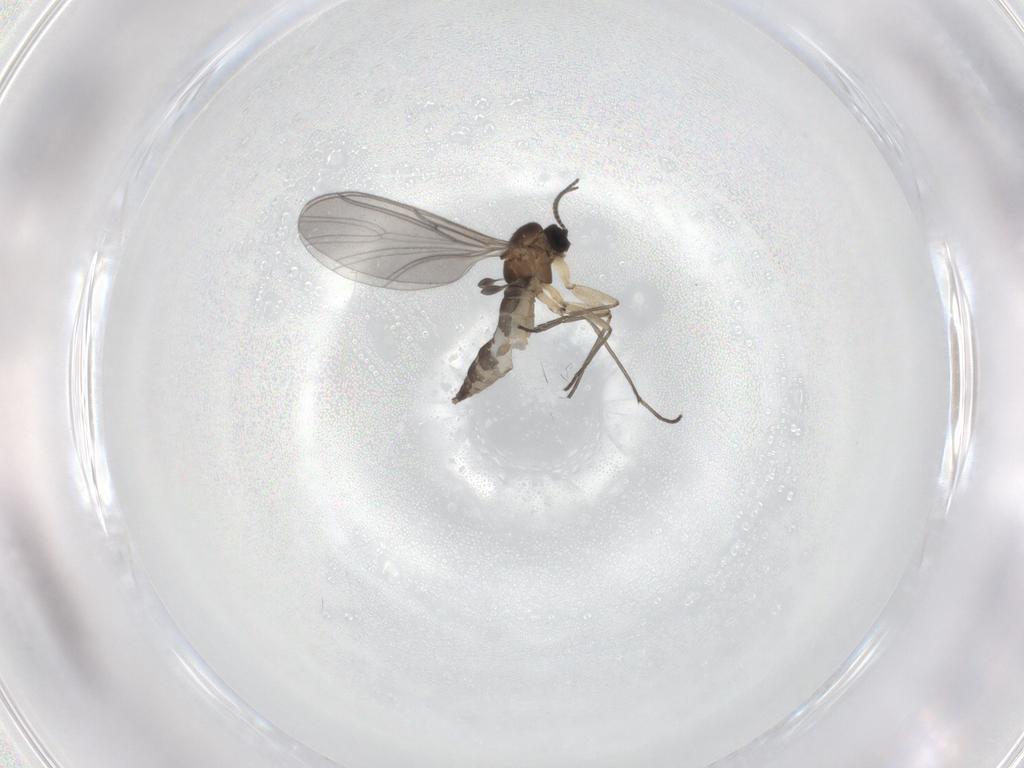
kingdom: Animalia
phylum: Arthropoda
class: Insecta
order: Diptera
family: Sciaridae
